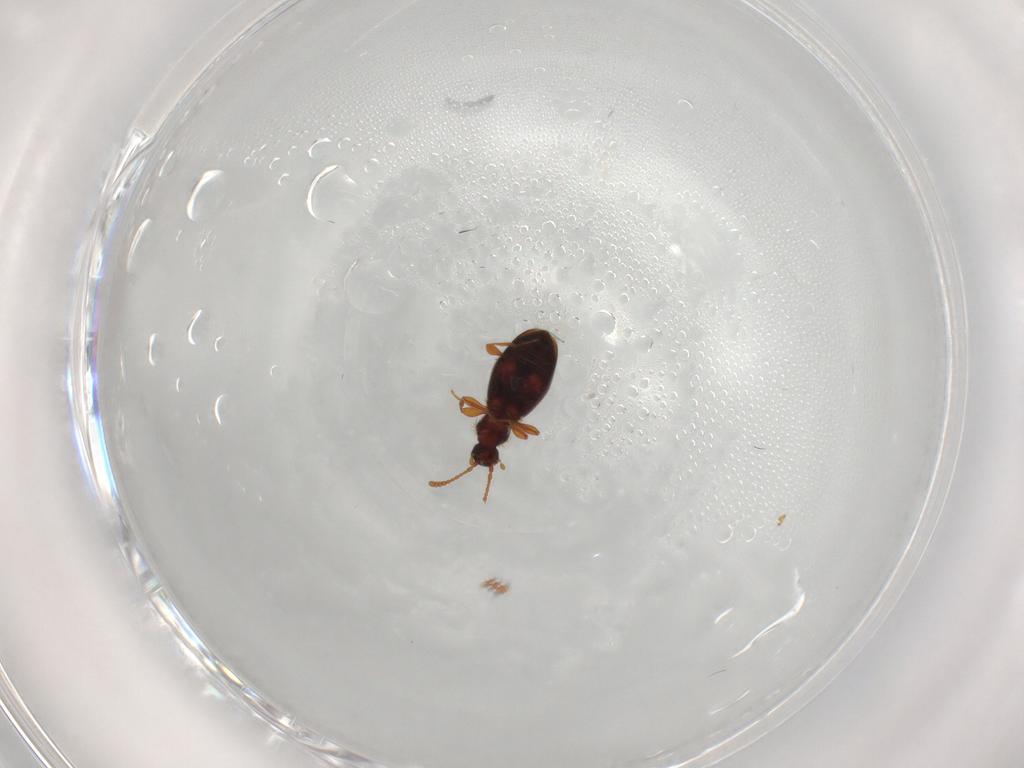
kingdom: Animalia
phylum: Arthropoda
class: Insecta
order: Coleoptera
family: Staphylinidae
